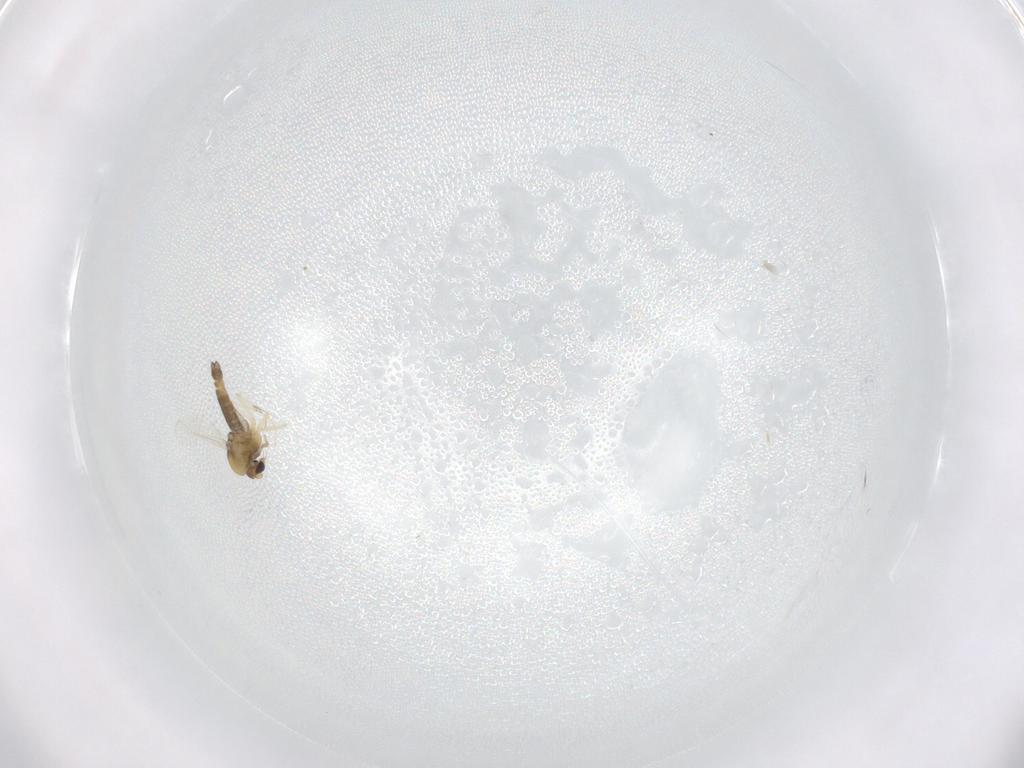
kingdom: Animalia
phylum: Arthropoda
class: Insecta
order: Diptera
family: Chironomidae
